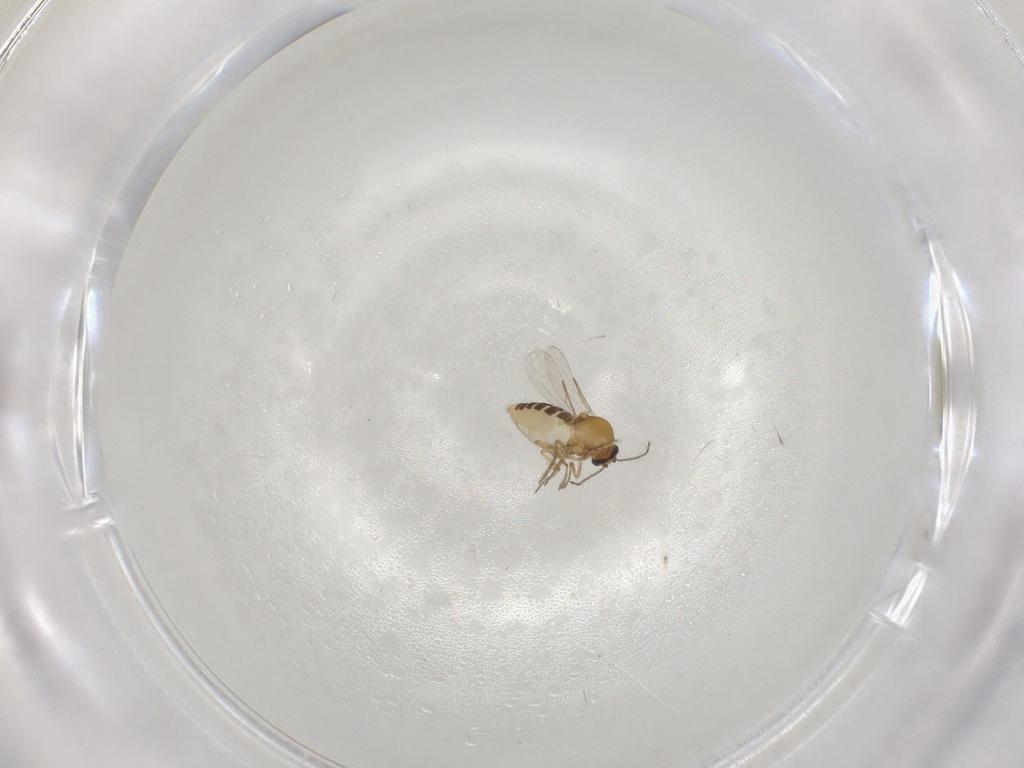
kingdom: Animalia
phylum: Arthropoda
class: Insecta
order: Diptera
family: Ceratopogonidae
